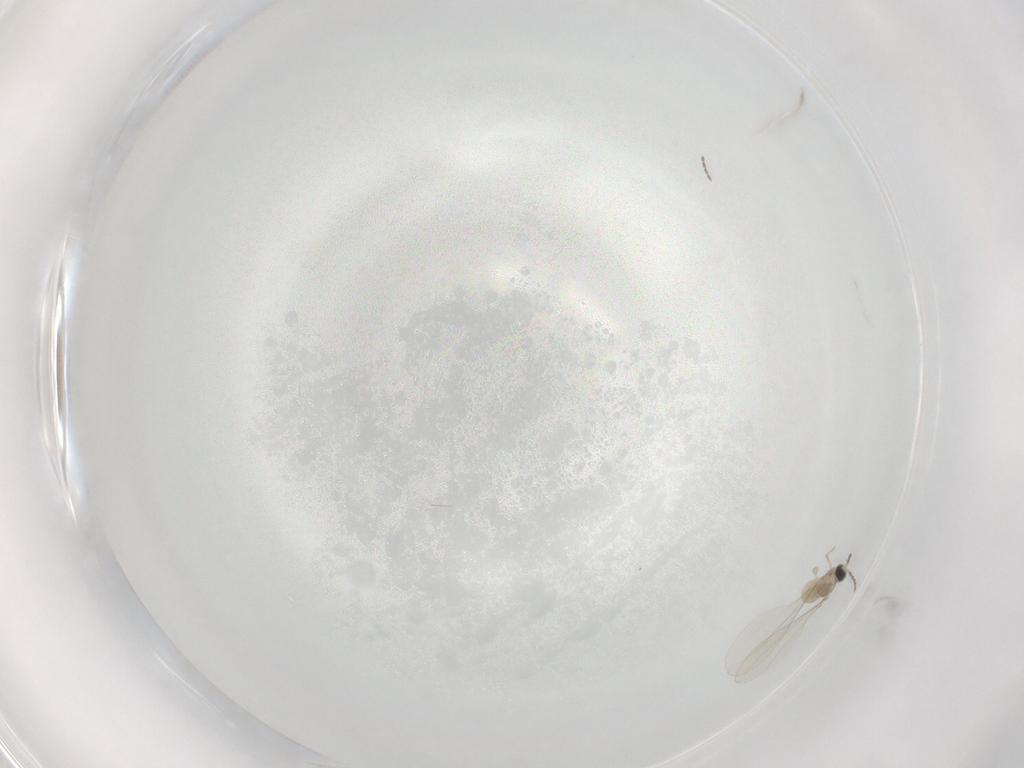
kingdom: Animalia
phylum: Arthropoda
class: Insecta
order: Diptera
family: Cecidomyiidae
